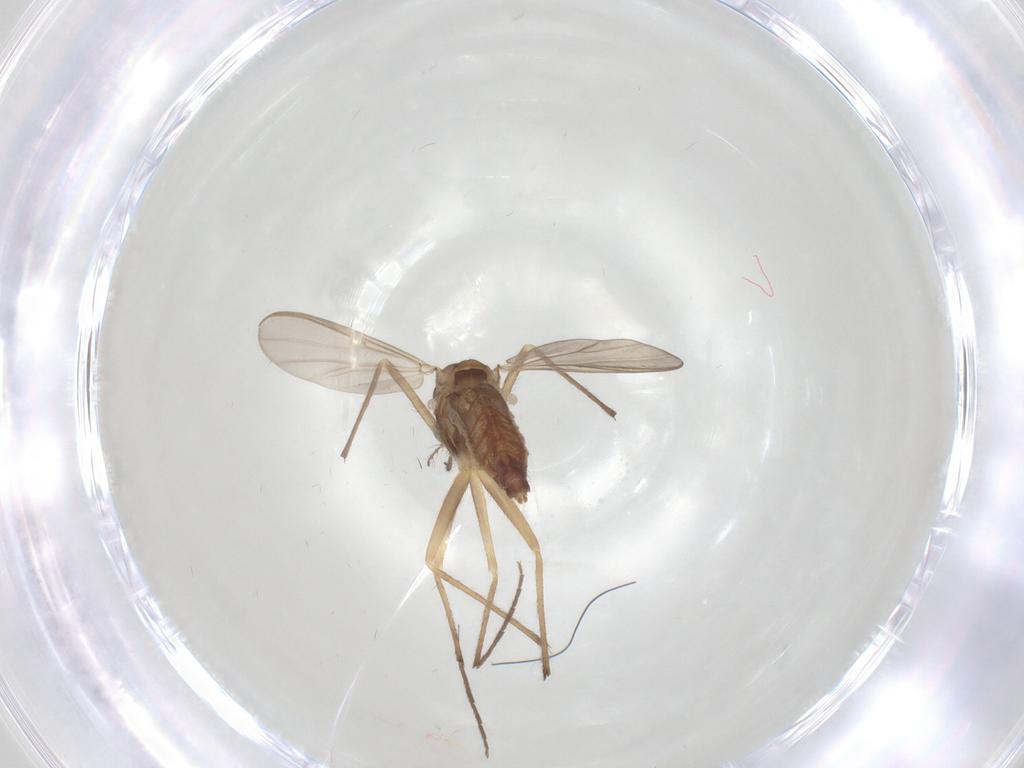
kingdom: Animalia
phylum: Arthropoda
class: Insecta
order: Diptera
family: Chironomidae
